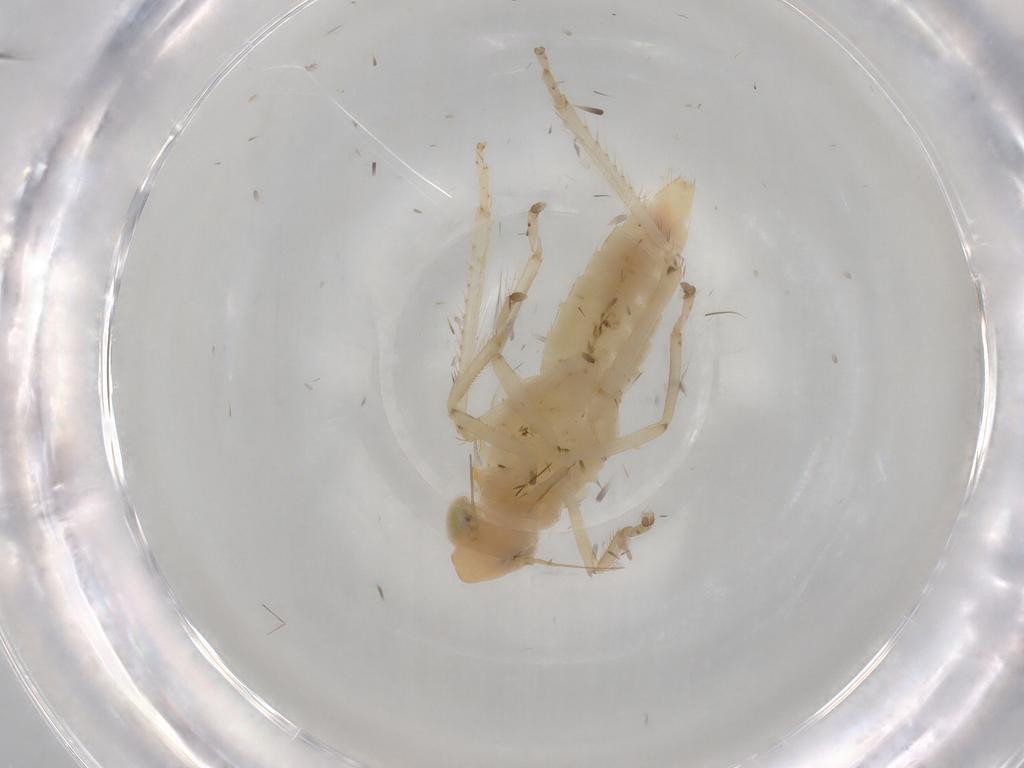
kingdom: Animalia
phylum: Arthropoda
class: Insecta
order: Hemiptera
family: Cicadellidae
